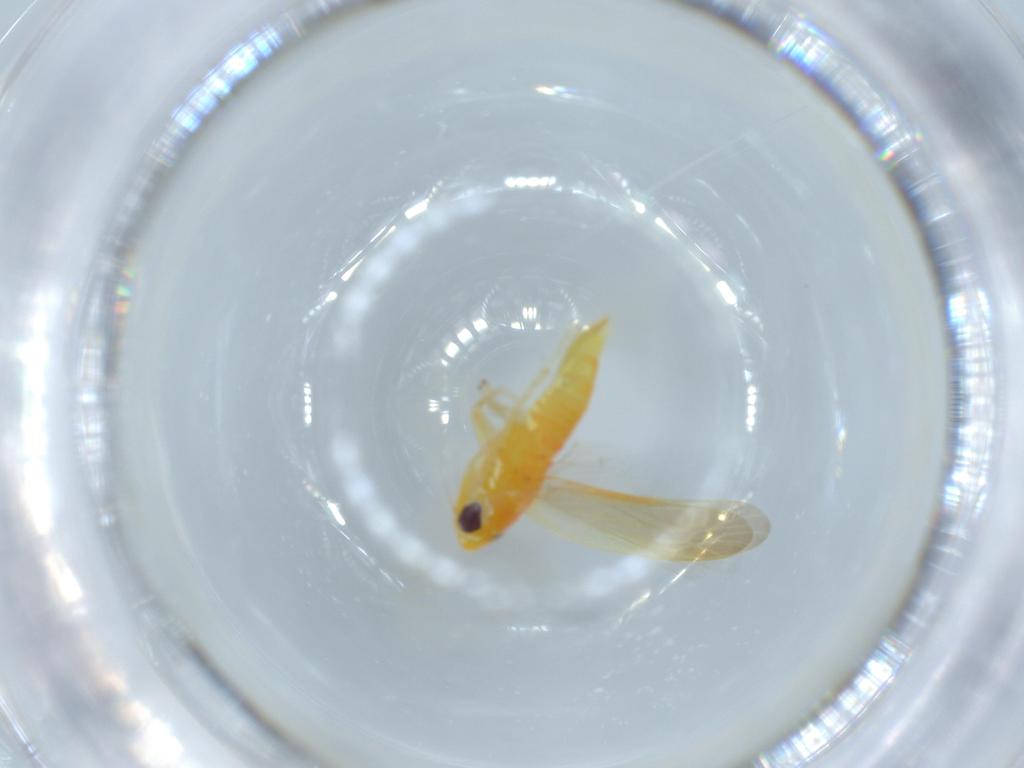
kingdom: Animalia
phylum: Arthropoda
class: Insecta
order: Hemiptera
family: Cicadellidae
